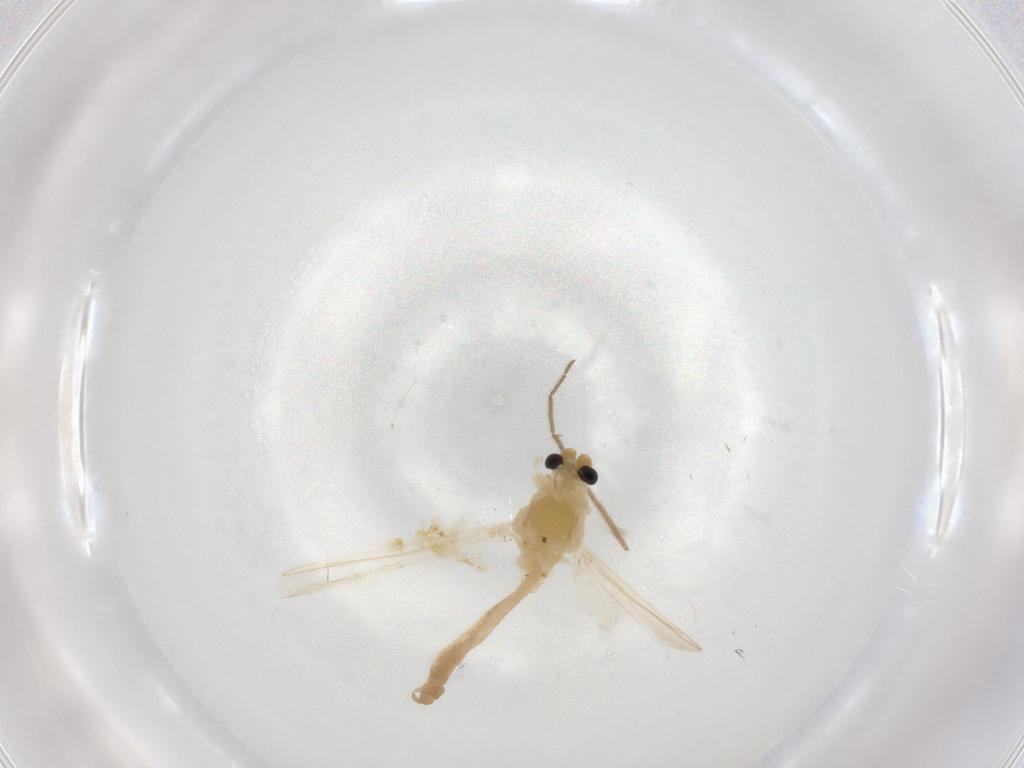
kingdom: Animalia
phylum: Arthropoda
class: Insecta
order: Diptera
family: Chironomidae
